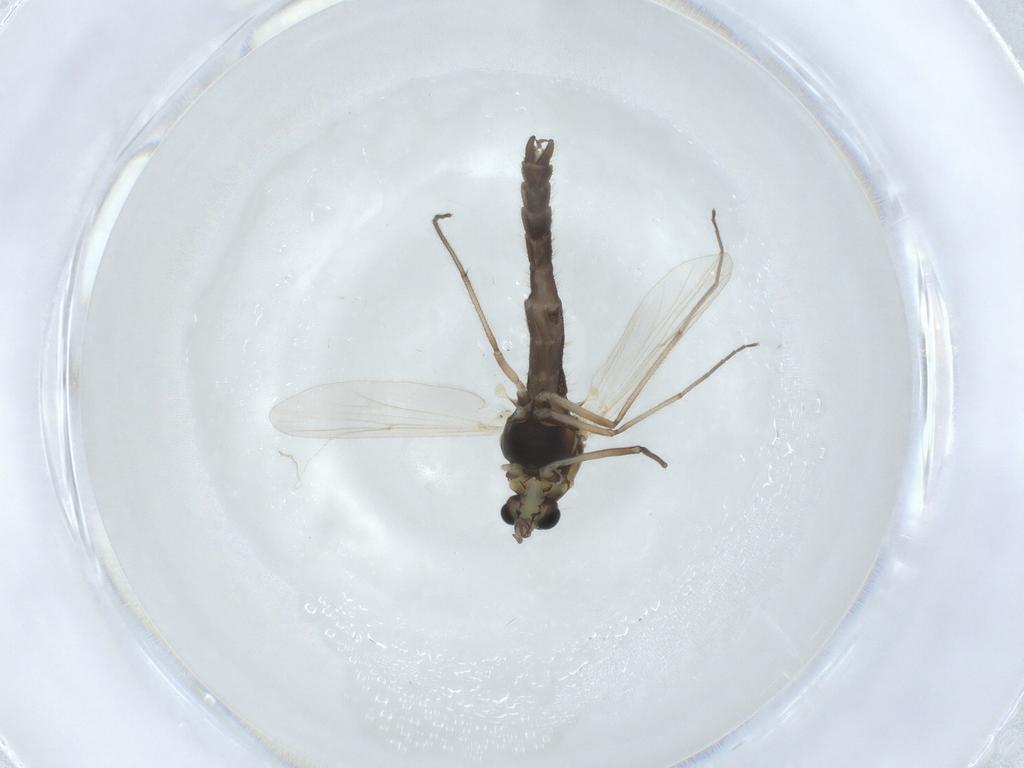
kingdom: Animalia
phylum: Arthropoda
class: Insecta
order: Diptera
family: Chironomidae
